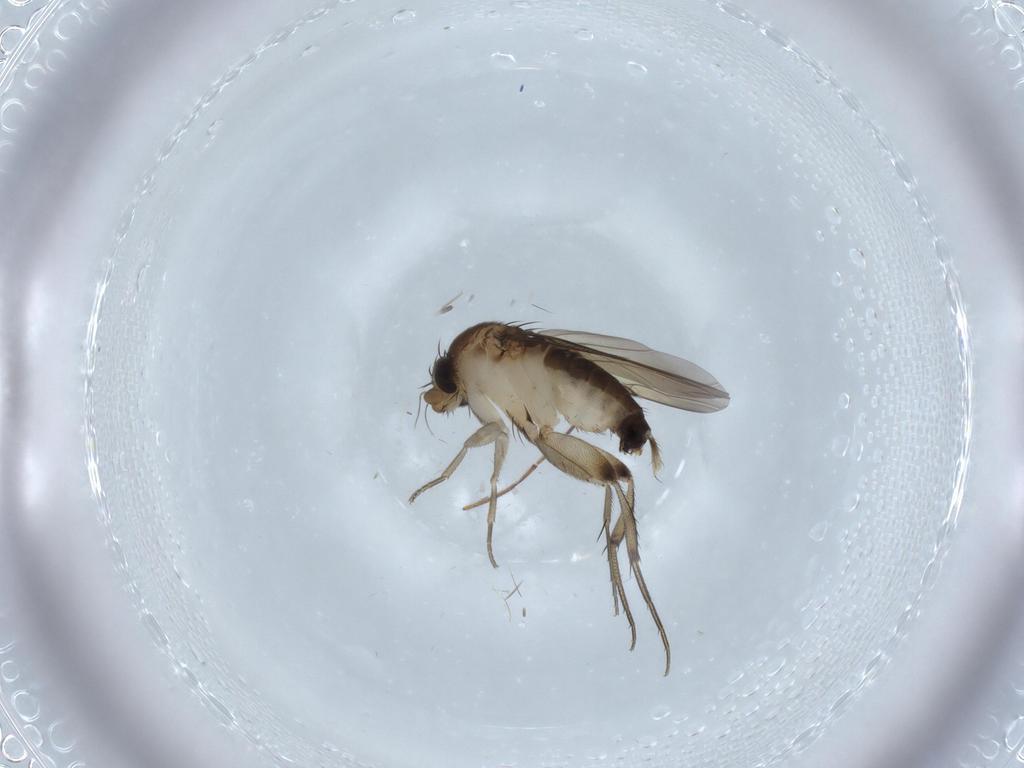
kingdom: Animalia
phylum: Arthropoda
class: Insecta
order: Diptera
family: Phoridae
